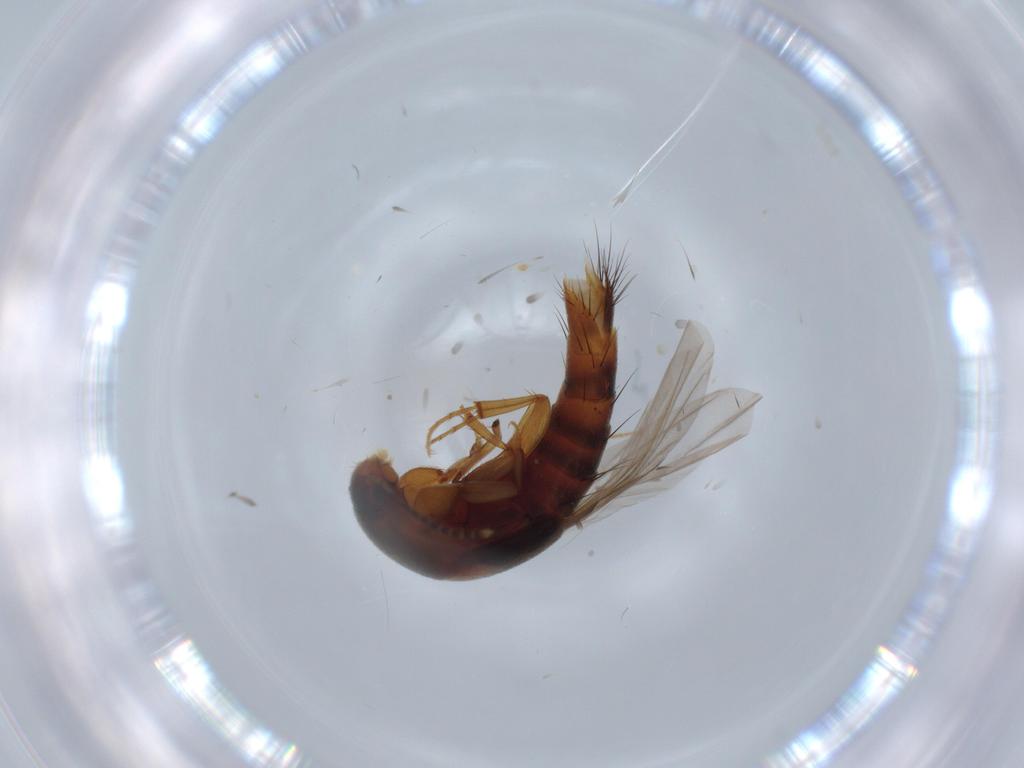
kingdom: Animalia
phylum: Arthropoda
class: Insecta
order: Coleoptera
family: Staphylinidae
